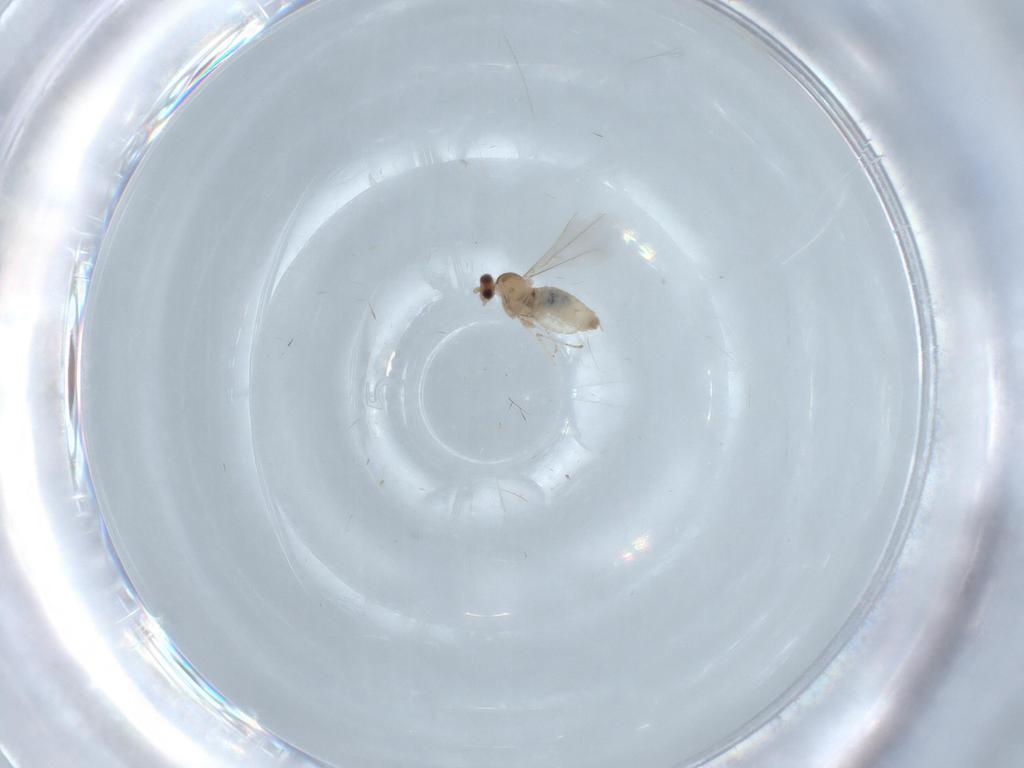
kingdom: Animalia
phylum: Arthropoda
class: Insecta
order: Diptera
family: Cecidomyiidae
